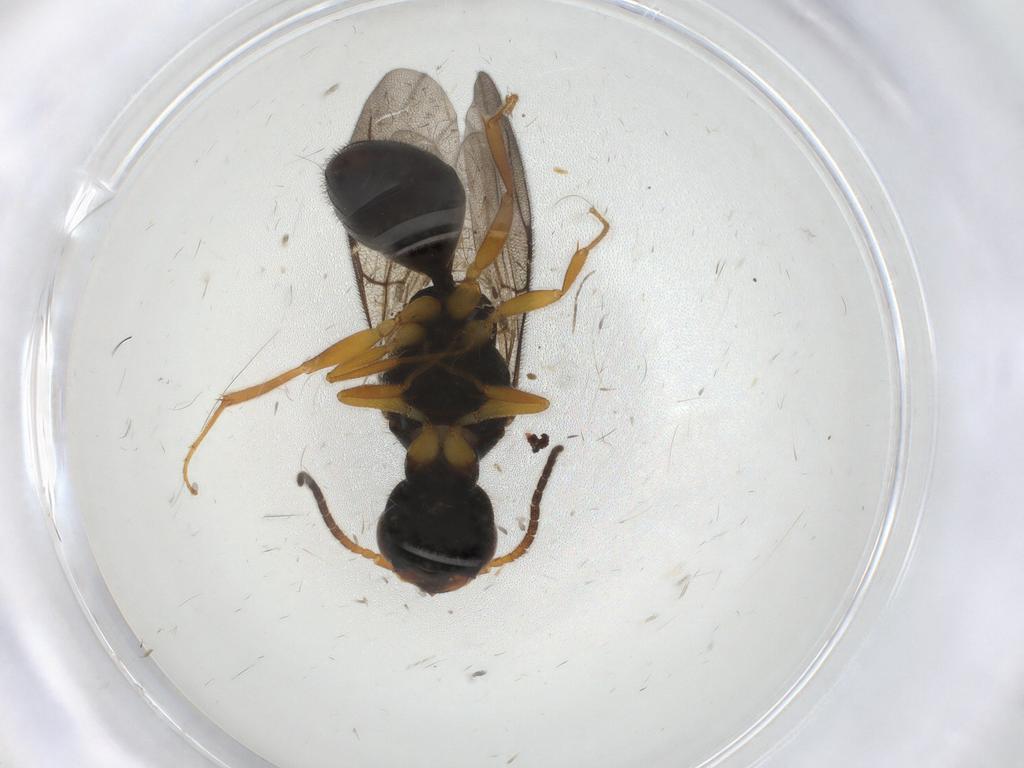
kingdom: Animalia
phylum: Arthropoda
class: Insecta
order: Hymenoptera
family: Bethylidae
